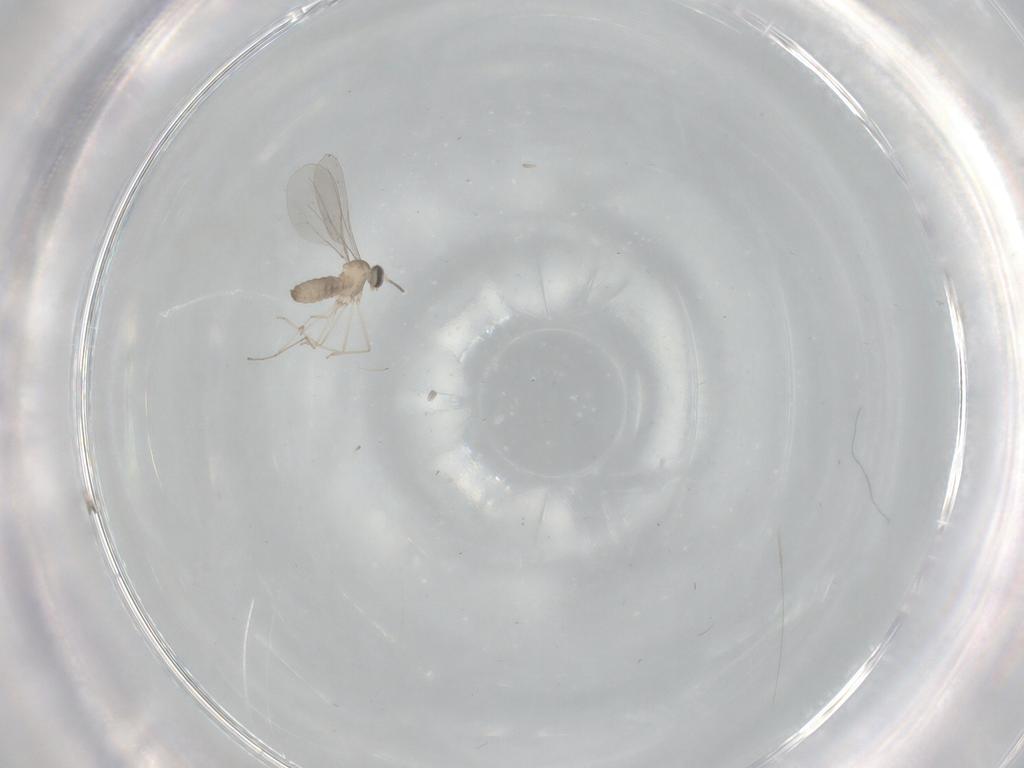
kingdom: Animalia
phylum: Arthropoda
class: Insecta
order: Diptera
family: Cecidomyiidae
